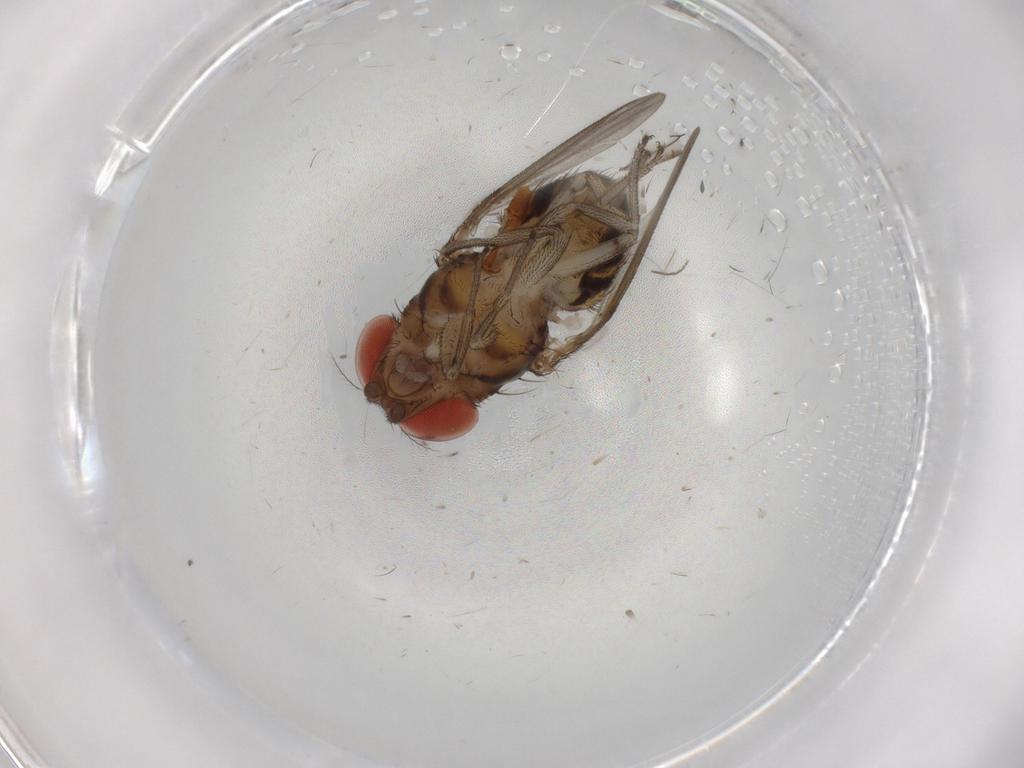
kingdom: Animalia
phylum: Arthropoda
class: Insecta
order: Diptera
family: Drosophilidae
